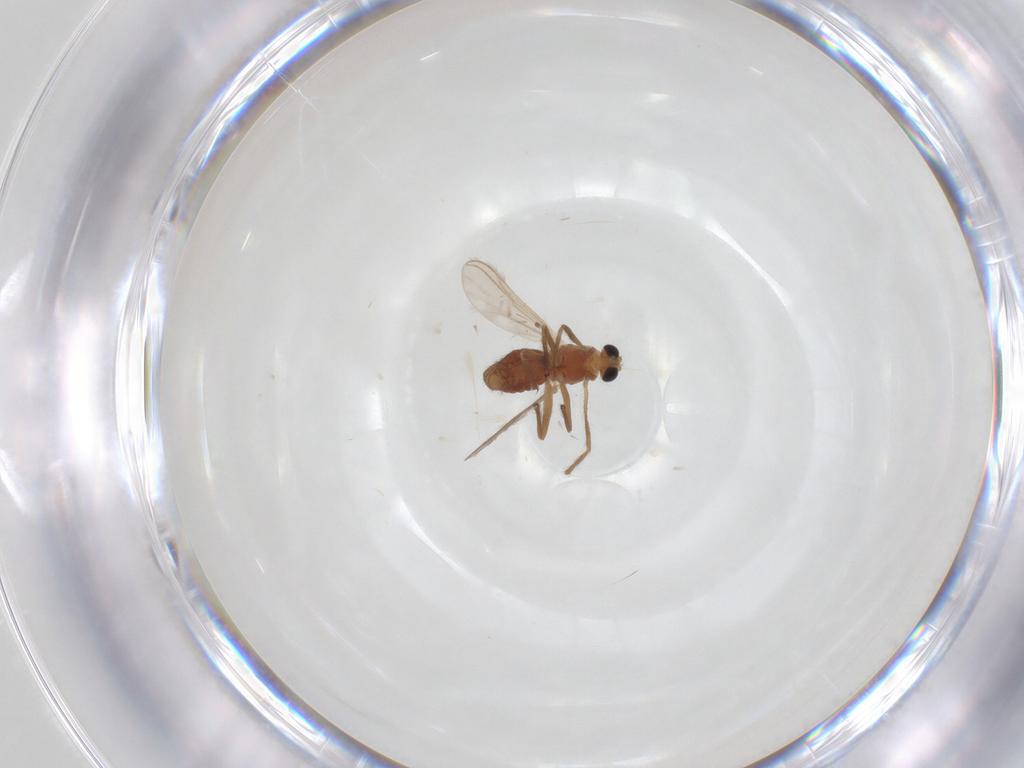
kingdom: Animalia
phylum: Arthropoda
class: Insecta
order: Diptera
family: Chironomidae
